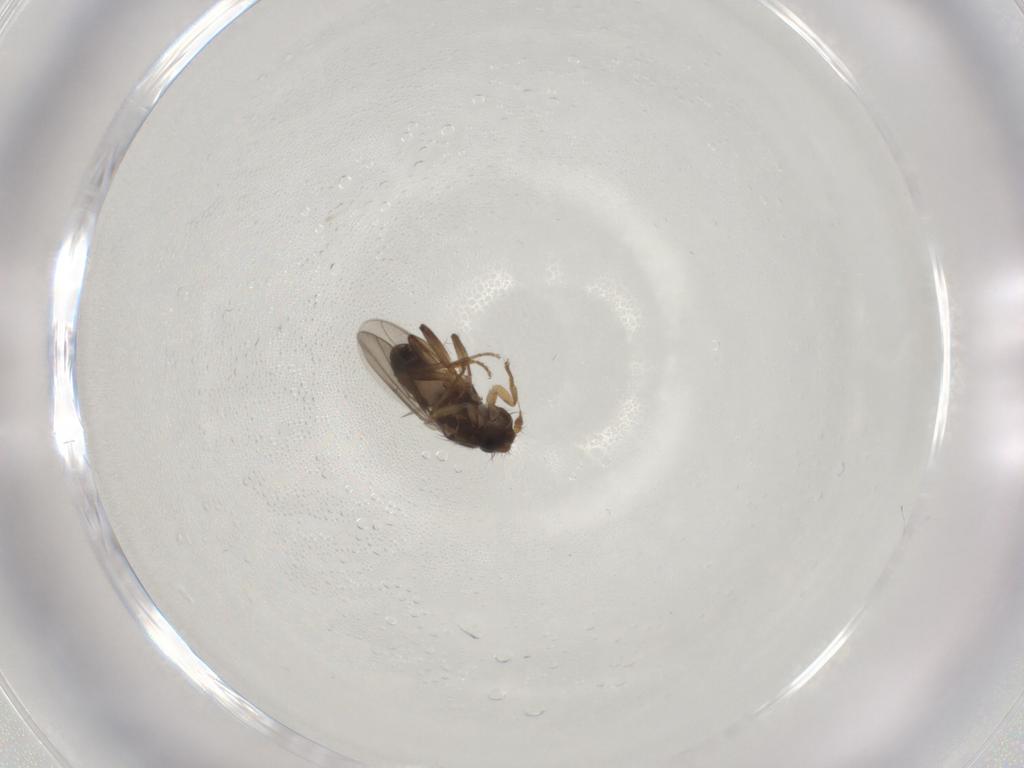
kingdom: Animalia
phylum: Arthropoda
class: Insecta
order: Diptera
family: Sphaeroceridae
